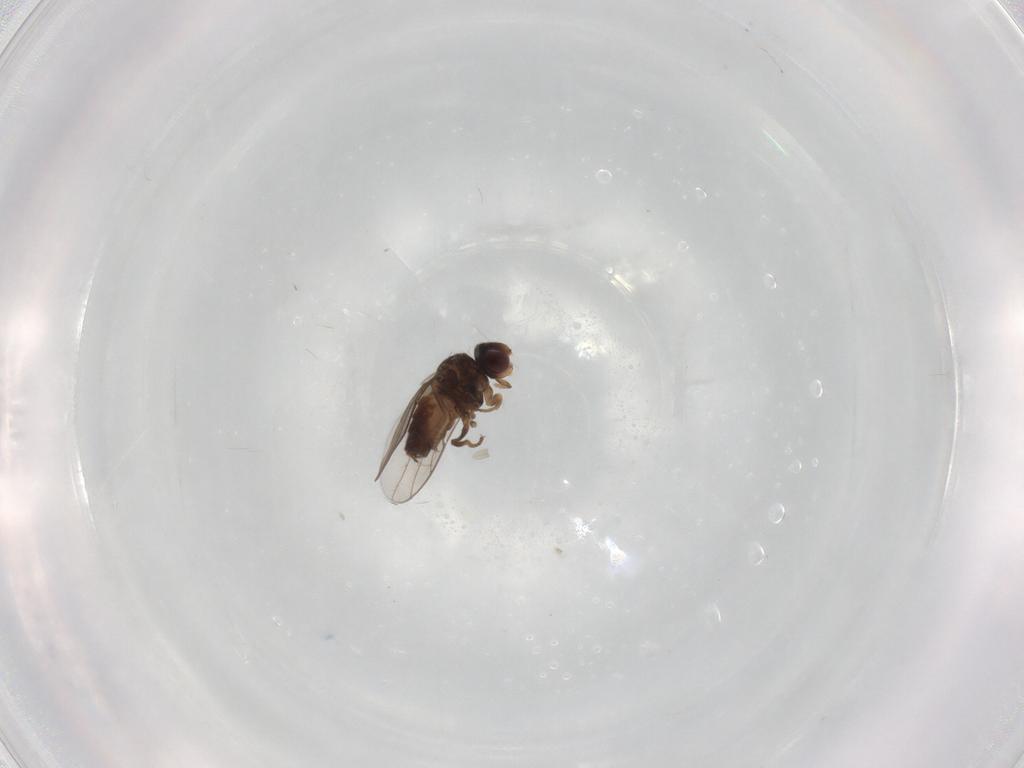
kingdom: Animalia
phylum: Arthropoda
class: Insecta
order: Diptera
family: Chloropidae
